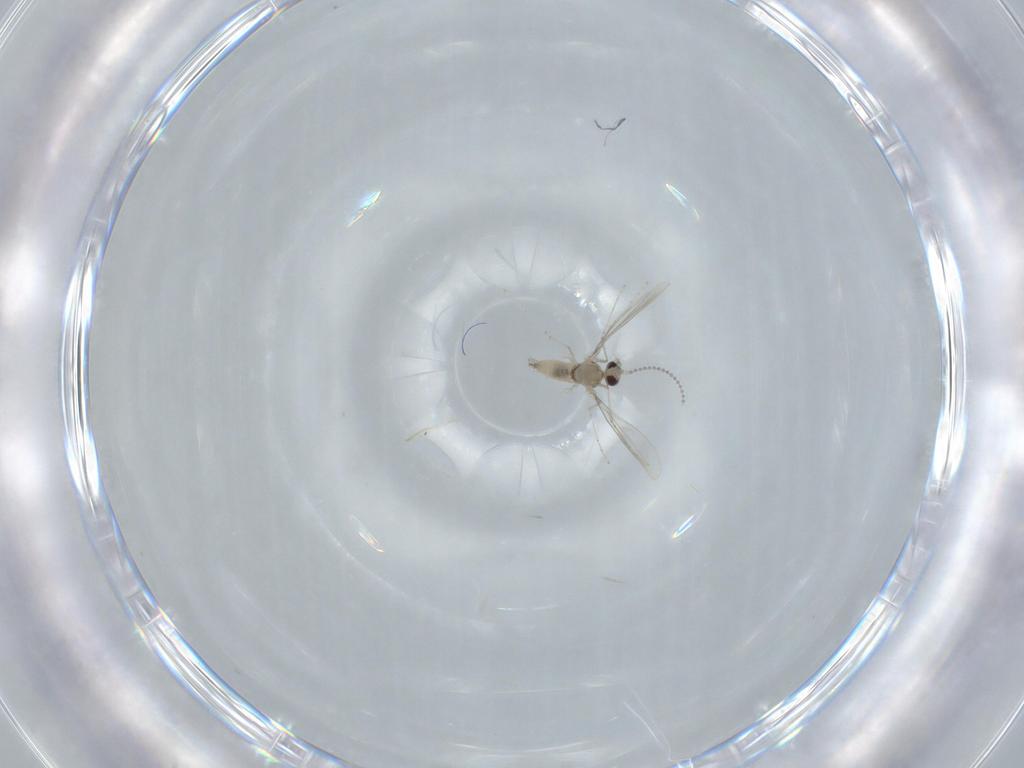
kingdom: Animalia
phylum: Arthropoda
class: Insecta
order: Diptera
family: Cecidomyiidae
